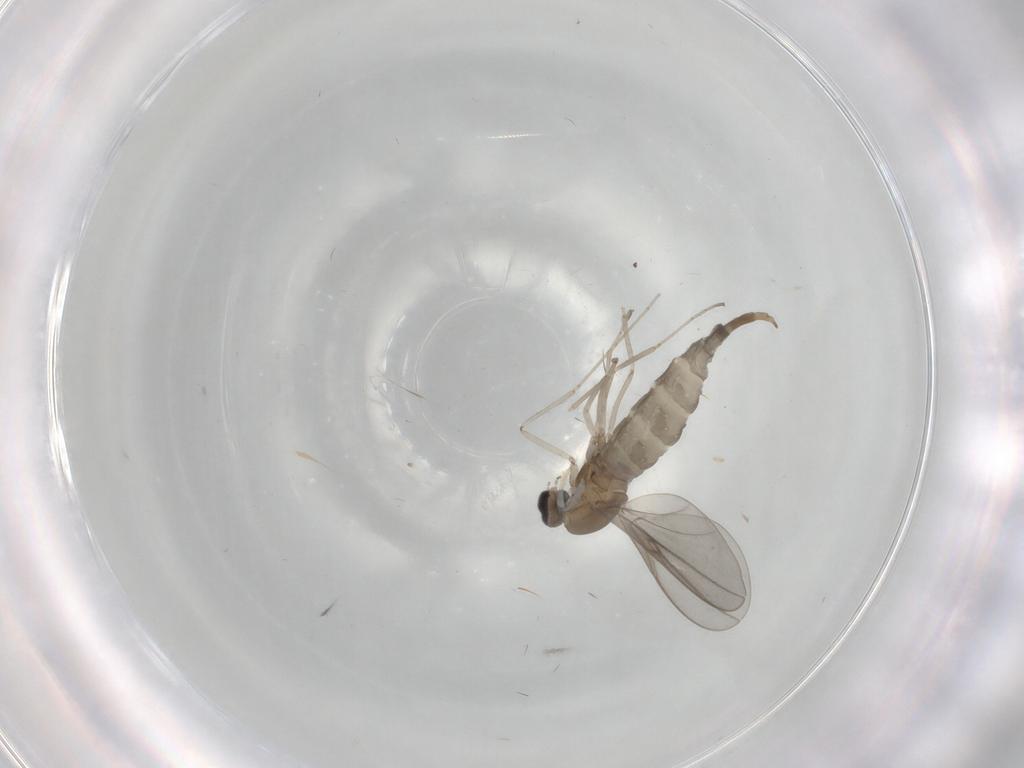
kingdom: Animalia
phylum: Arthropoda
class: Insecta
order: Diptera
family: Cecidomyiidae
